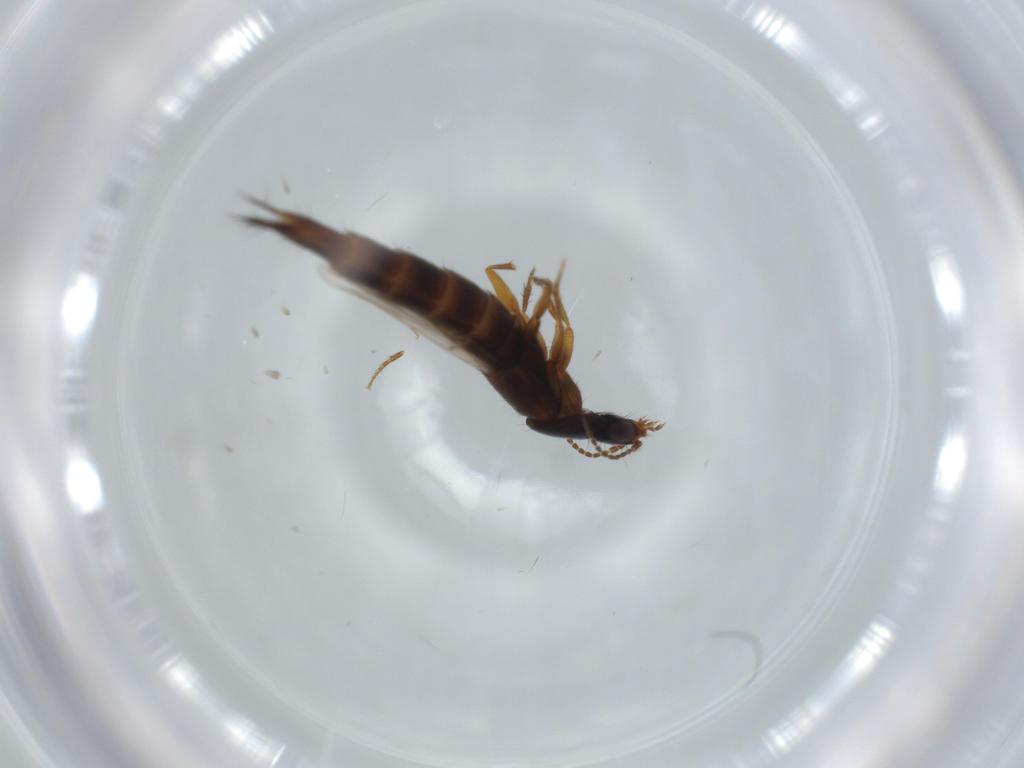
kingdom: Animalia
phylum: Arthropoda
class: Insecta
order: Coleoptera
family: Staphylinidae
